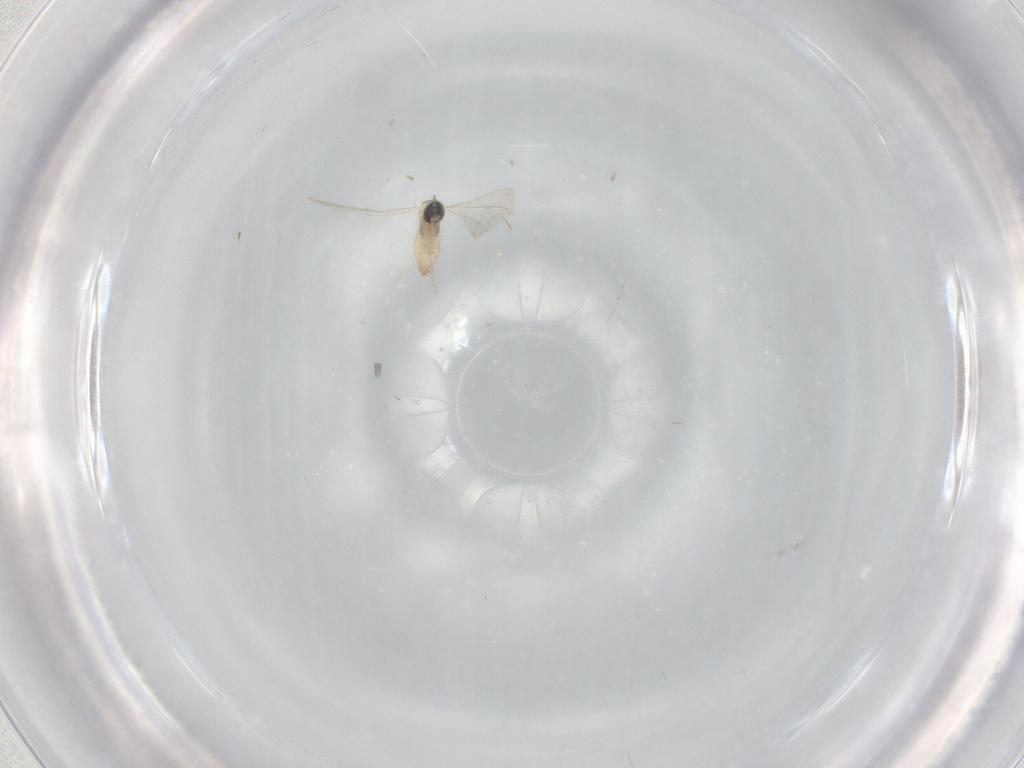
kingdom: Animalia
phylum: Arthropoda
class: Insecta
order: Diptera
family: Cecidomyiidae
